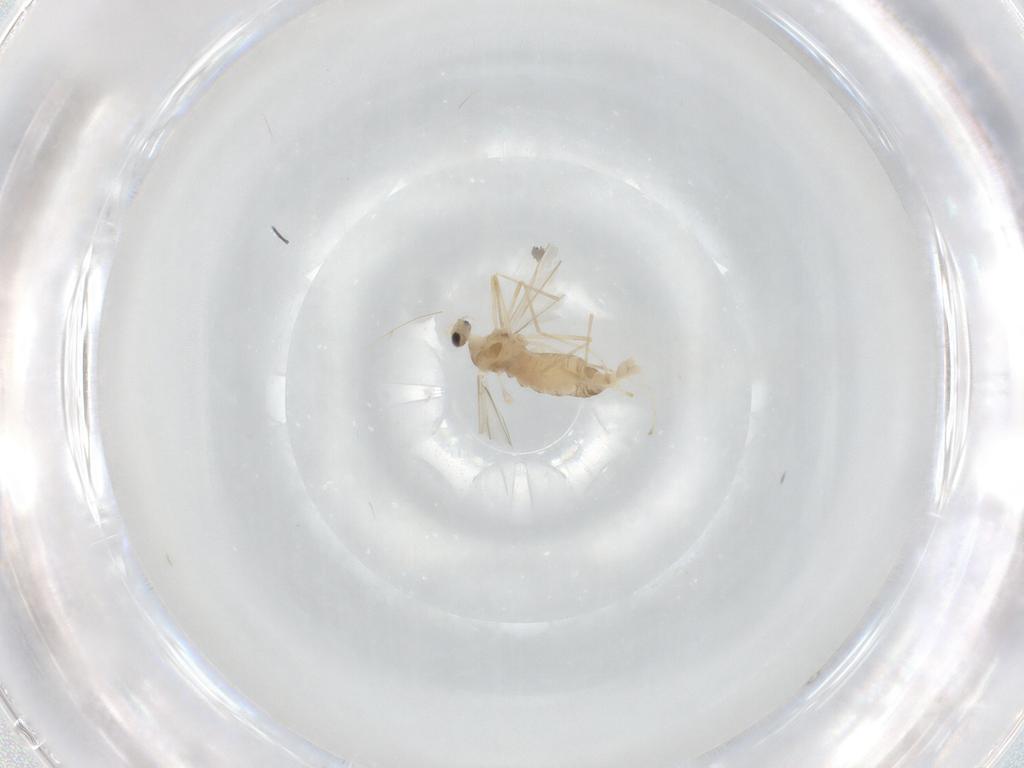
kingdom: Animalia
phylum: Arthropoda
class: Insecta
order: Diptera
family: Cecidomyiidae
